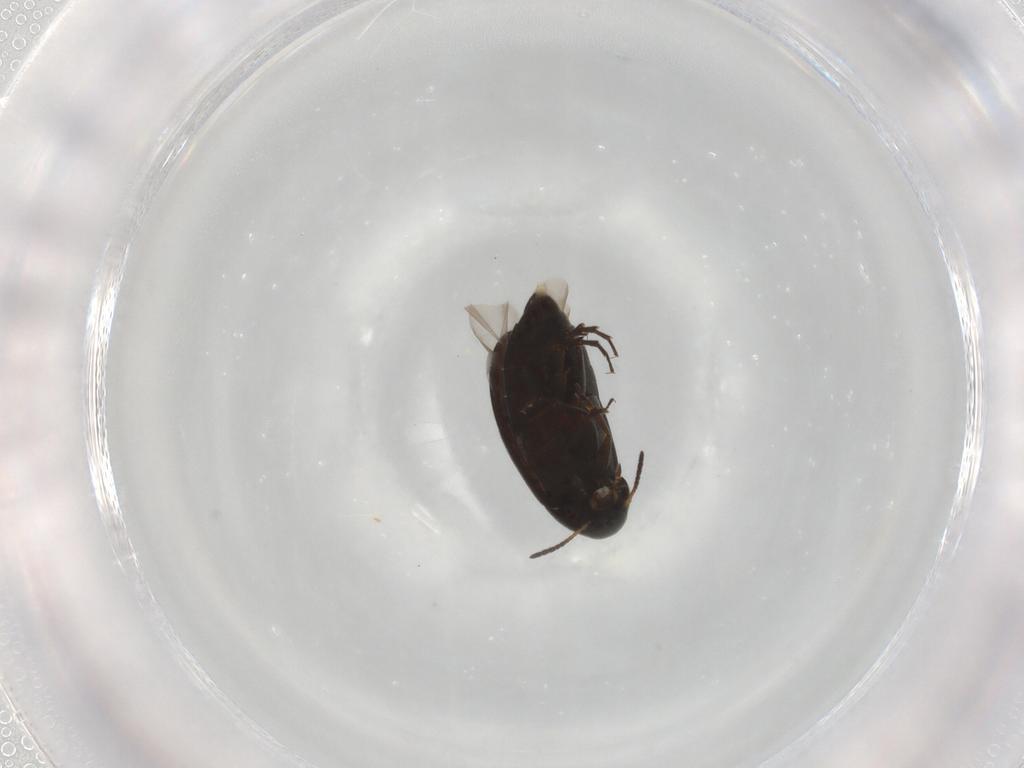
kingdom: Animalia
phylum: Arthropoda
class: Insecta
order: Coleoptera
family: Scraptiidae
